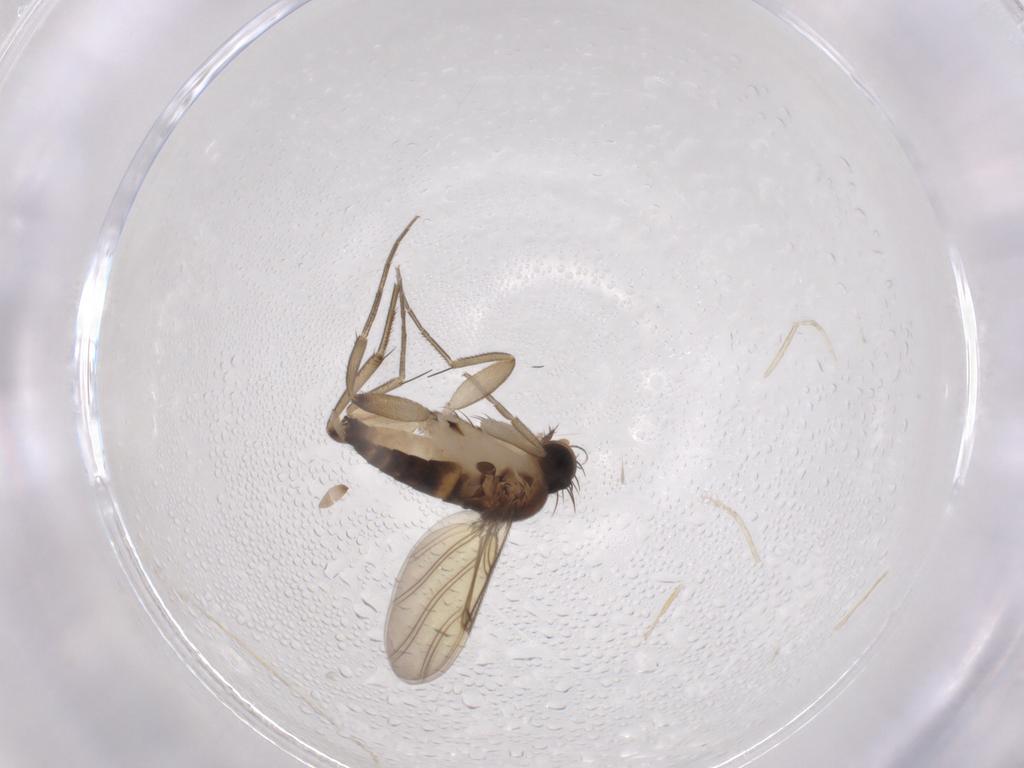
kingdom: Animalia
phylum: Arthropoda
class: Insecta
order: Diptera
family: Phoridae
